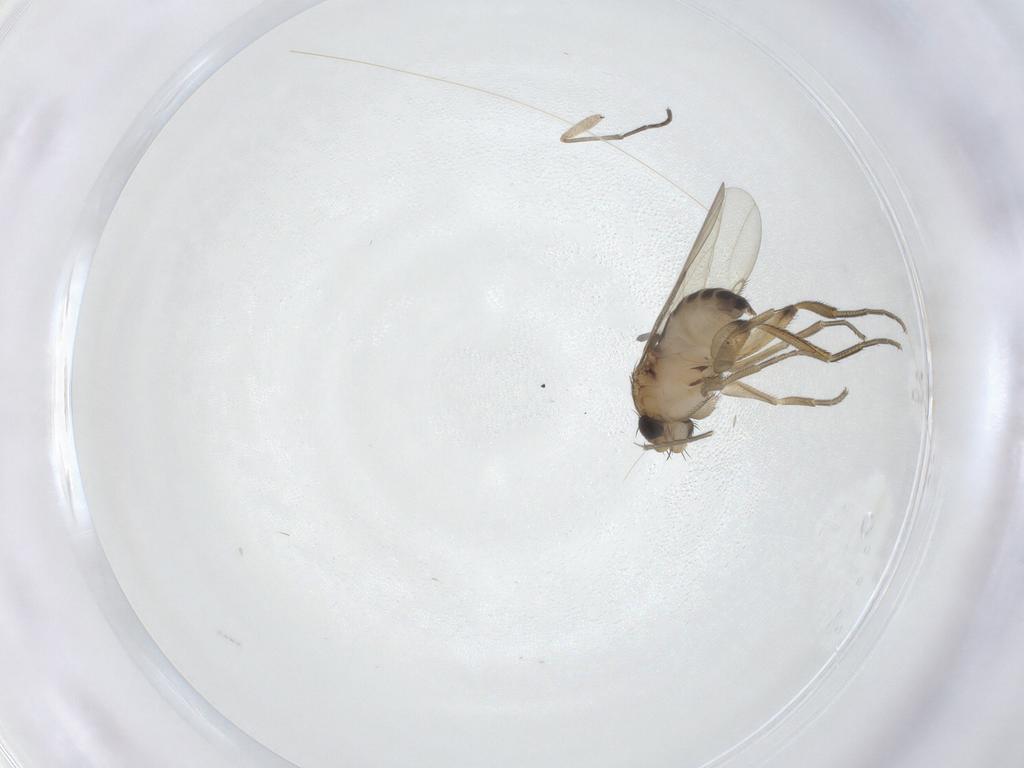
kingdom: Animalia
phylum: Arthropoda
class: Insecta
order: Diptera
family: Phoridae
